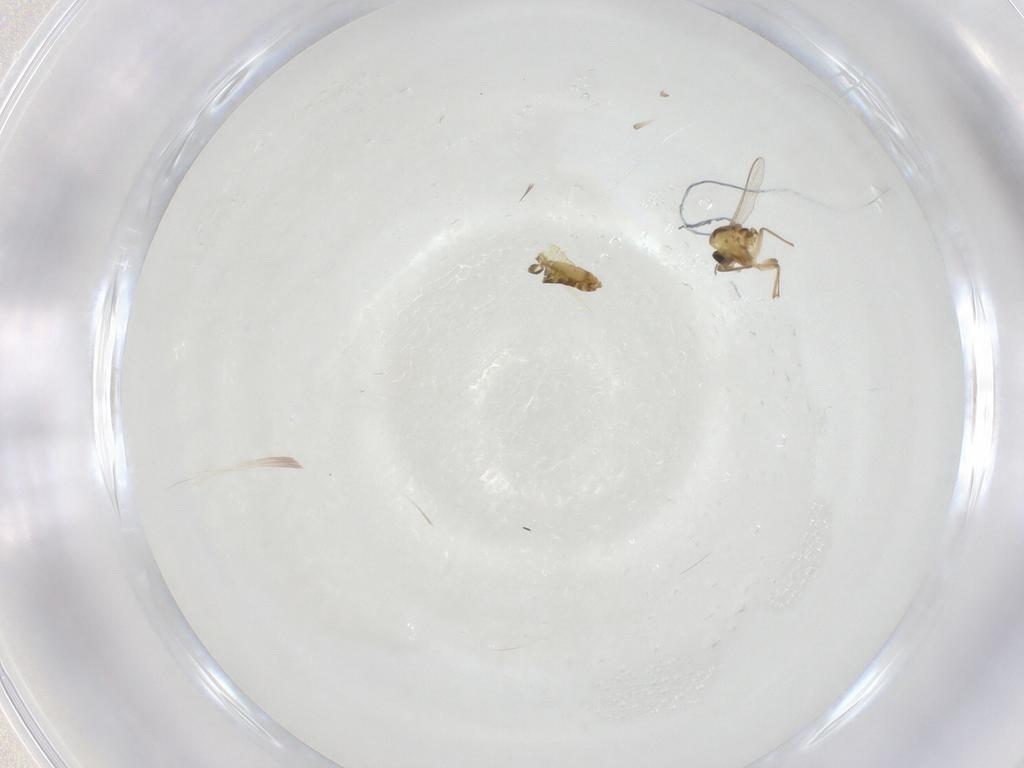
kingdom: Animalia
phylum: Arthropoda
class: Insecta
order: Diptera
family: Chironomidae
